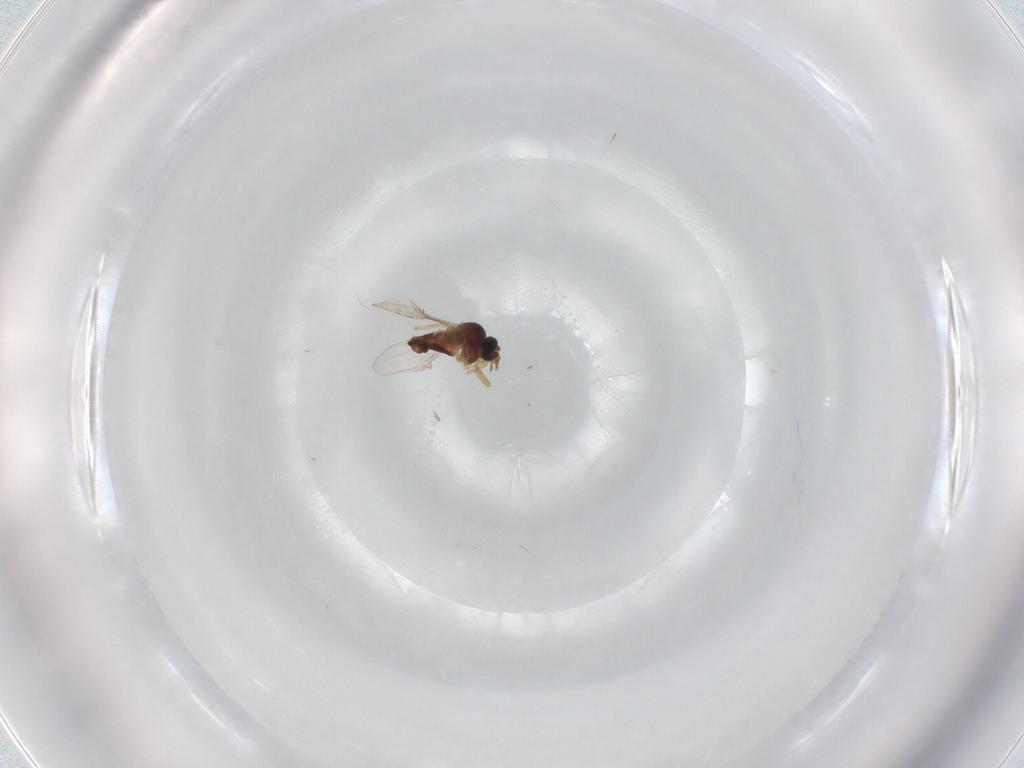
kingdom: Animalia
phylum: Arthropoda
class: Insecta
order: Diptera
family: Ceratopogonidae
